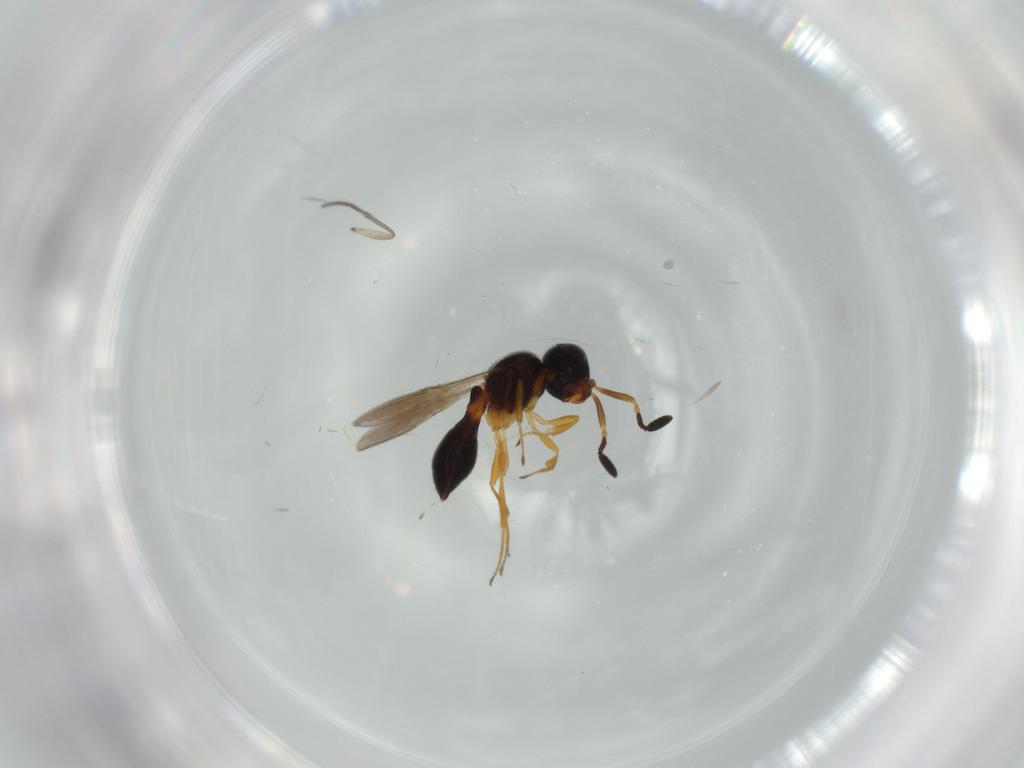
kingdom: Animalia
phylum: Arthropoda
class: Insecta
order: Hymenoptera
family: Scelionidae
